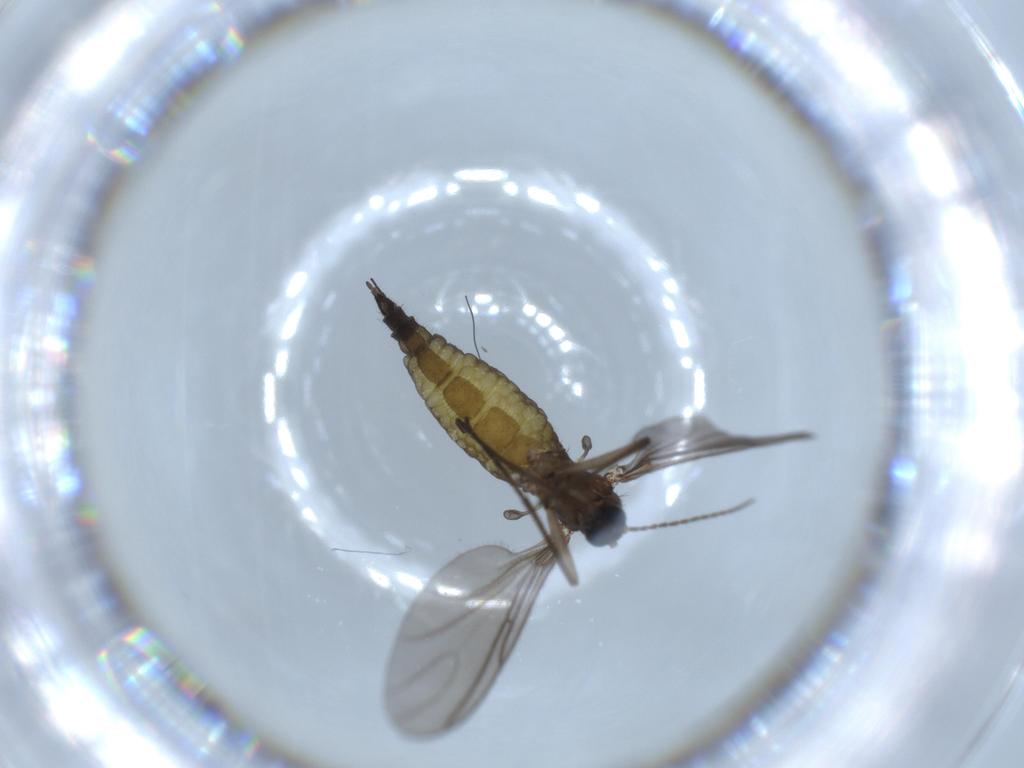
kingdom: Animalia
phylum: Arthropoda
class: Insecta
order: Diptera
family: Sciaridae
